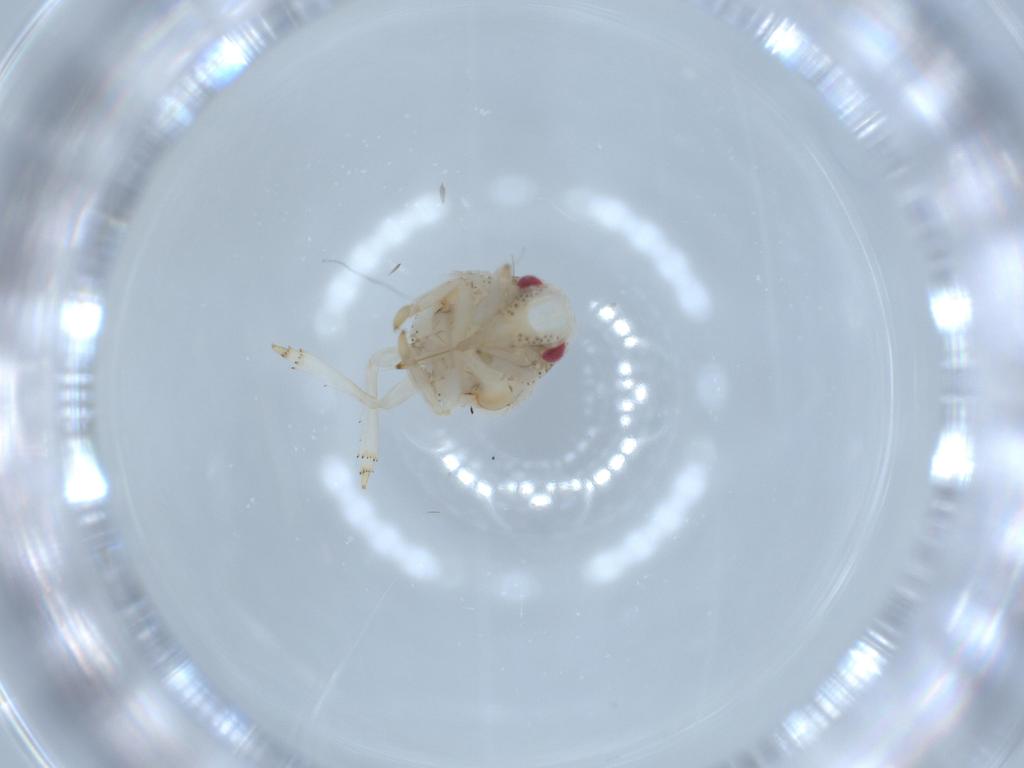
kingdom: Animalia
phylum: Arthropoda
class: Insecta
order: Hemiptera
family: Acanaloniidae
